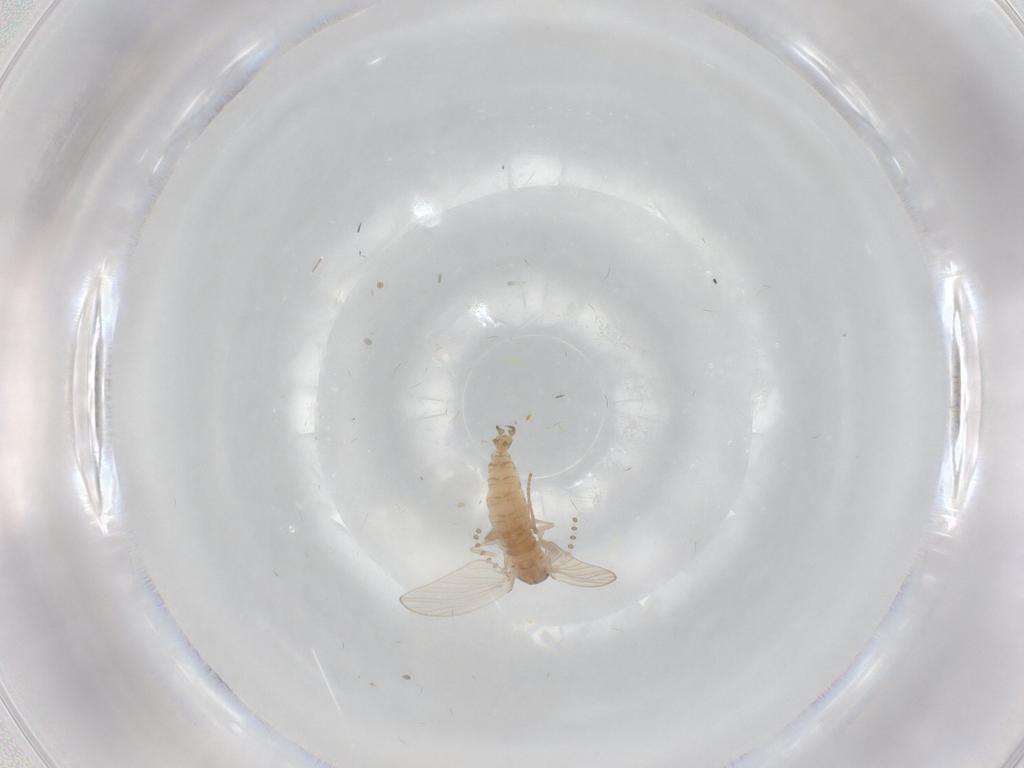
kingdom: Animalia
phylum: Arthropoda
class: Insecta
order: Diptera
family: Psychodidae
